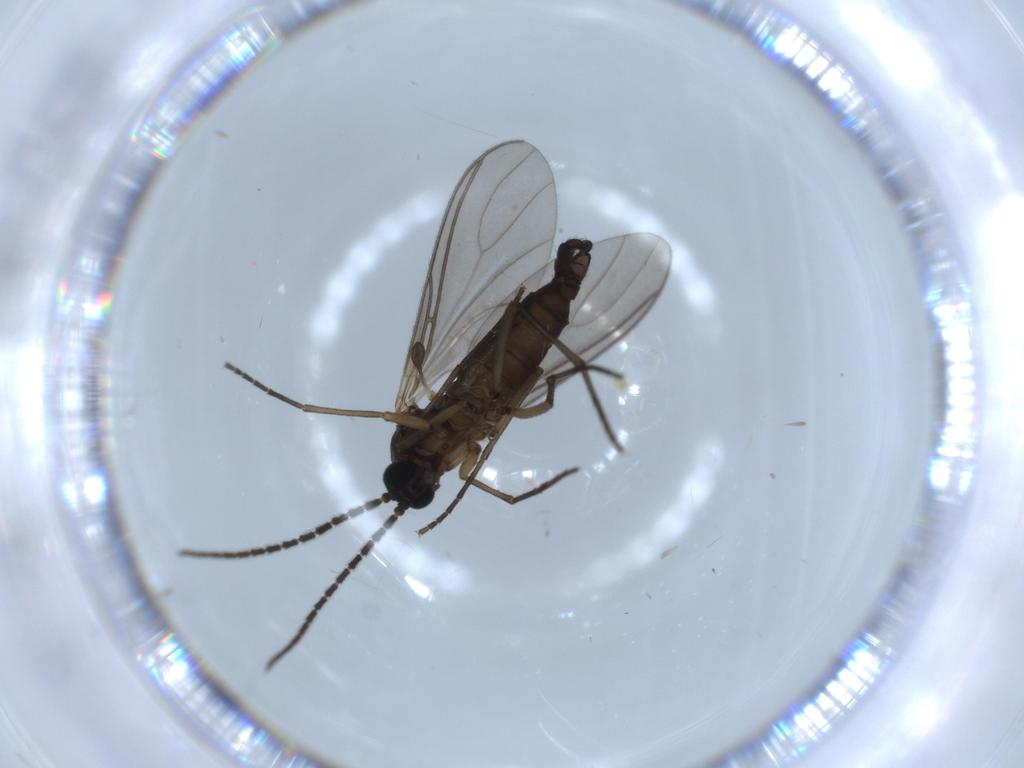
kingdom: Animalia
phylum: Arthropoda
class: Insecta
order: Diptera
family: Sciaridae
